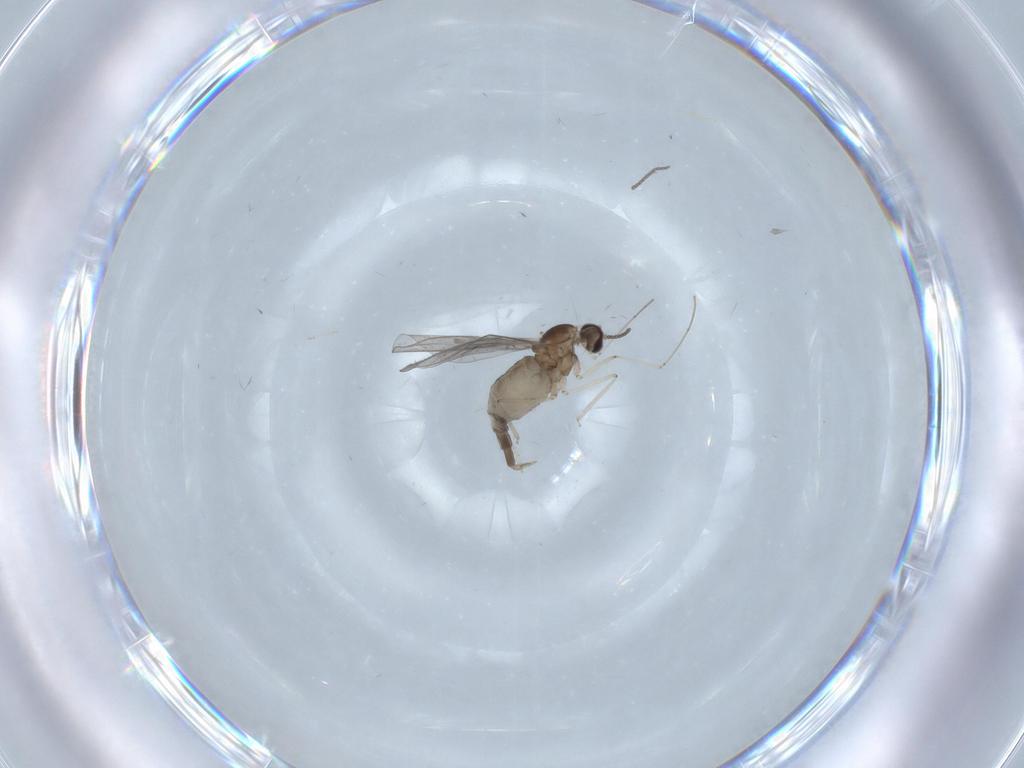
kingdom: Animalia
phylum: Arthropoda
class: Insecta
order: Diptera
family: Cecidomyiidae
